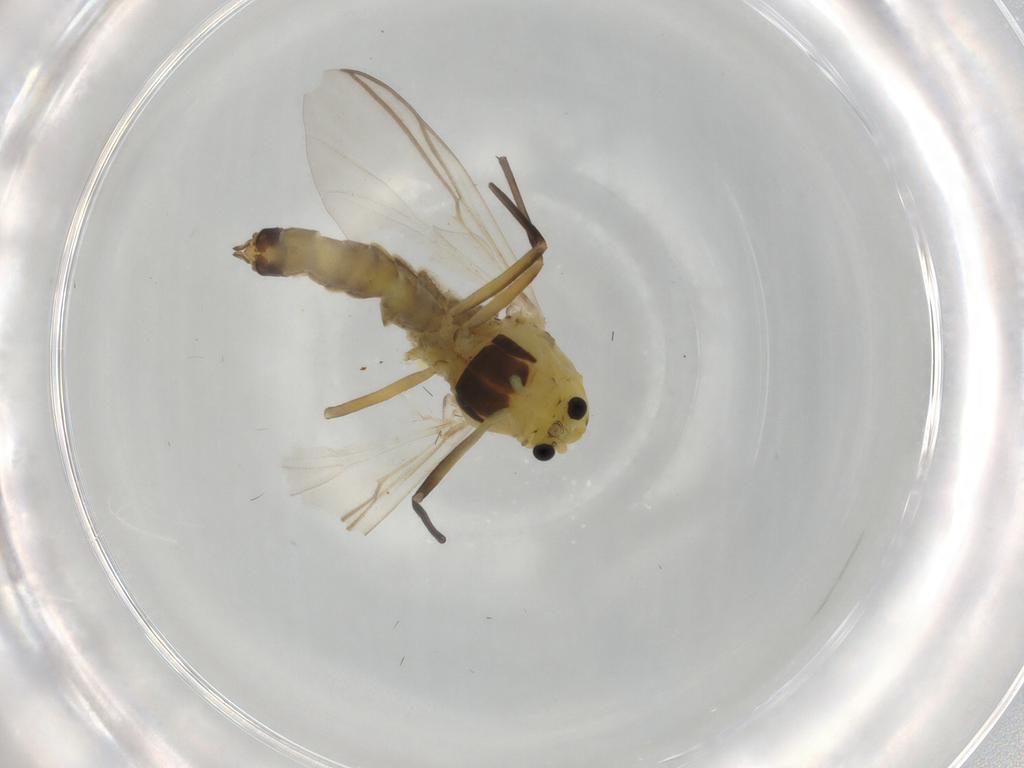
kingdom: Animalia
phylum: Arthropoda
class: Insecta
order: Diptera
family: Chironomidae
